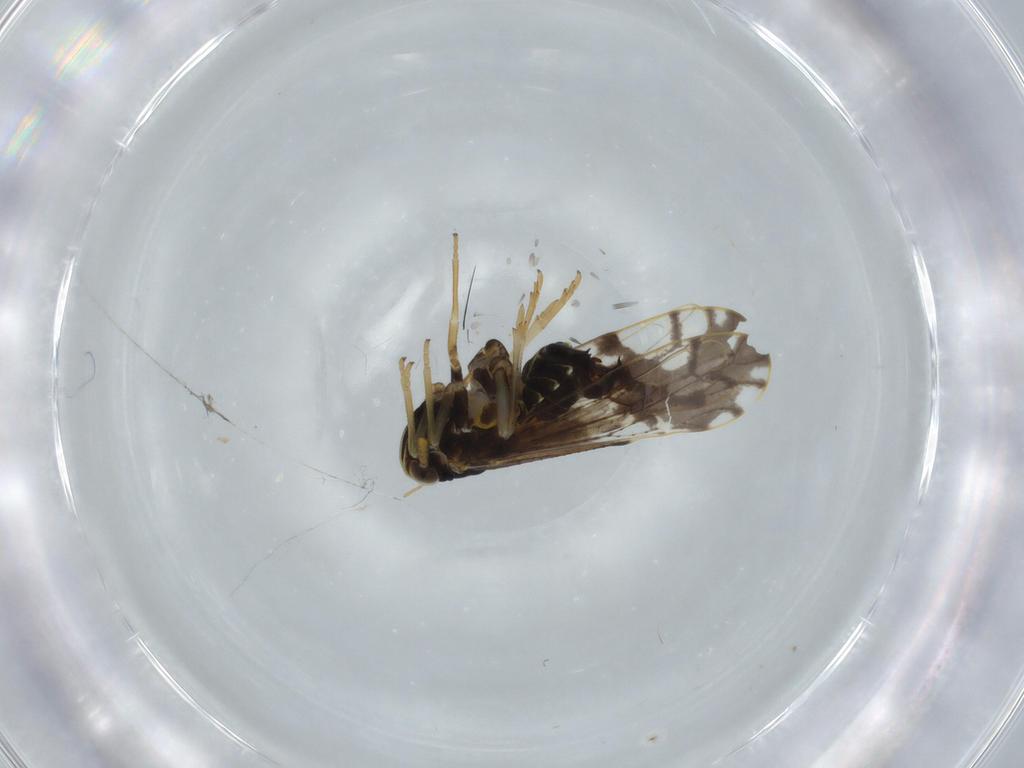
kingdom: Animalia
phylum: Arthropoda
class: Insecta
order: Hemiptera
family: Delphacidae
